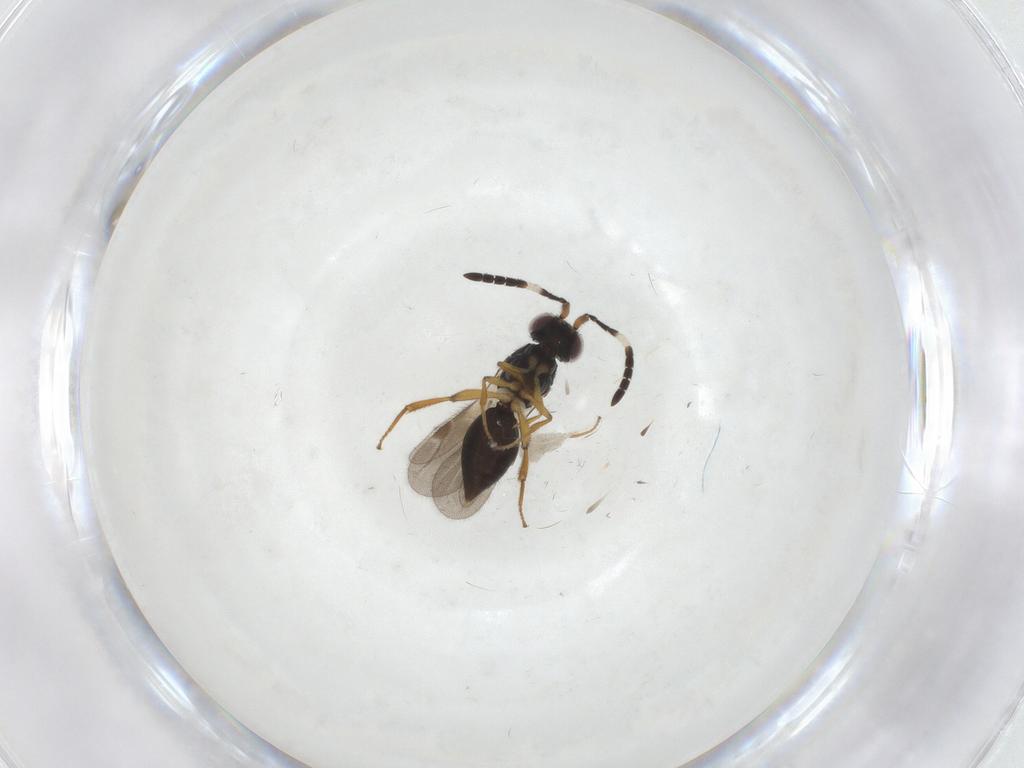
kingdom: Animalia
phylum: Arthropoda
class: Insecta
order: Hymenoptera
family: Megaspilidae
